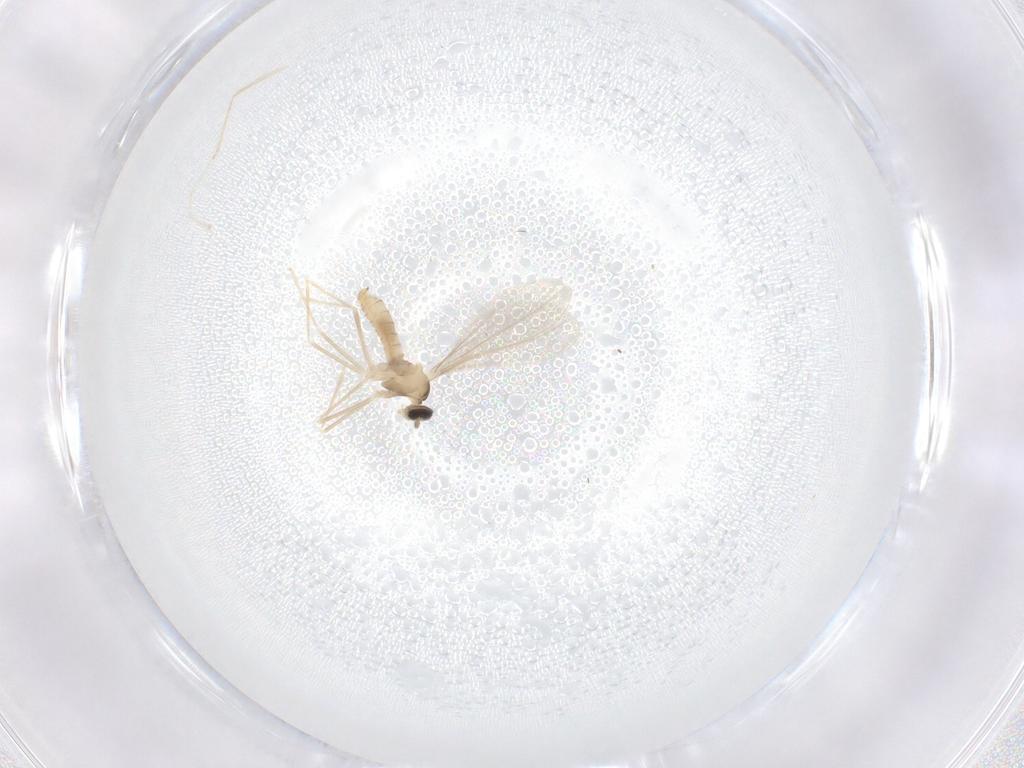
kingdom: Animalia
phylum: Arthropoda
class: Insecta
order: Diptera
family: Cecidomyiidae
